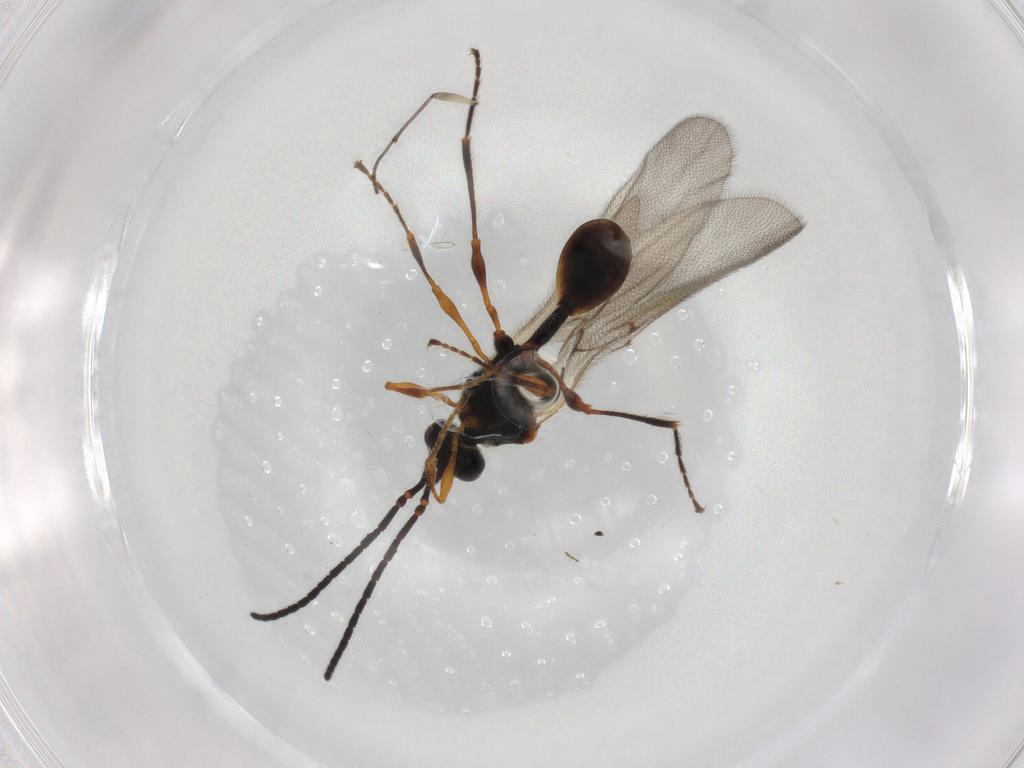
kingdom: Animalia
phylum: Arthropoda
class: Insecta
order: Hymenoptera
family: Diapriidae
